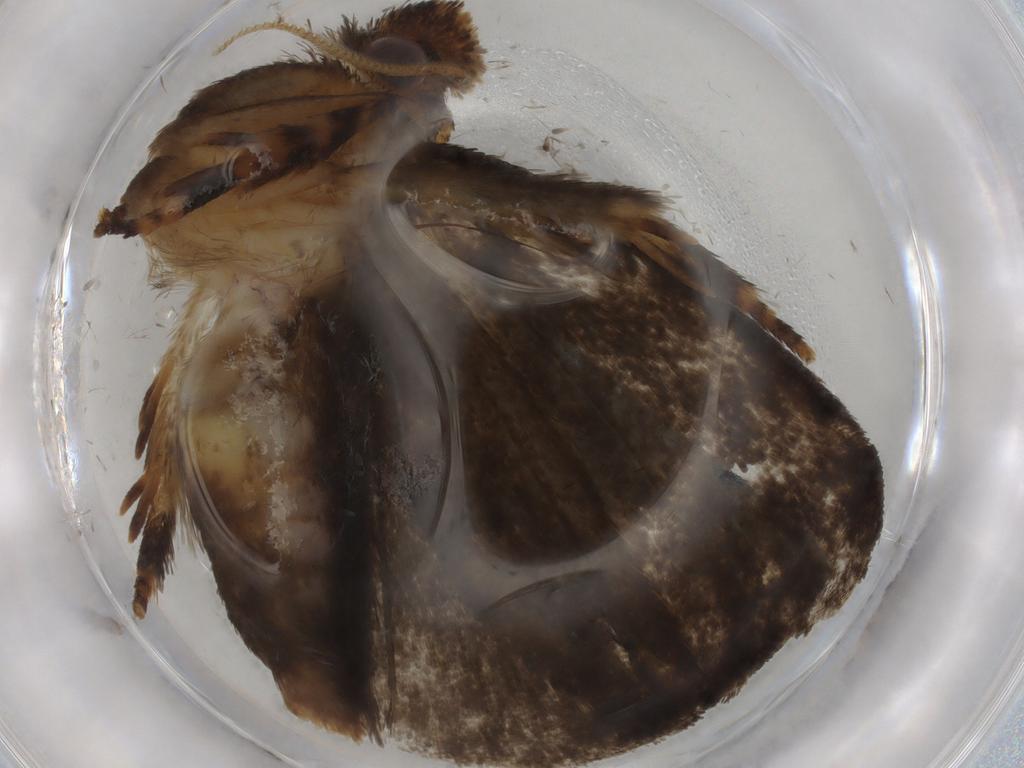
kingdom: Animalia
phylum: Arthropoda
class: Insecta
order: Lepidoptera
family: Tineidae
